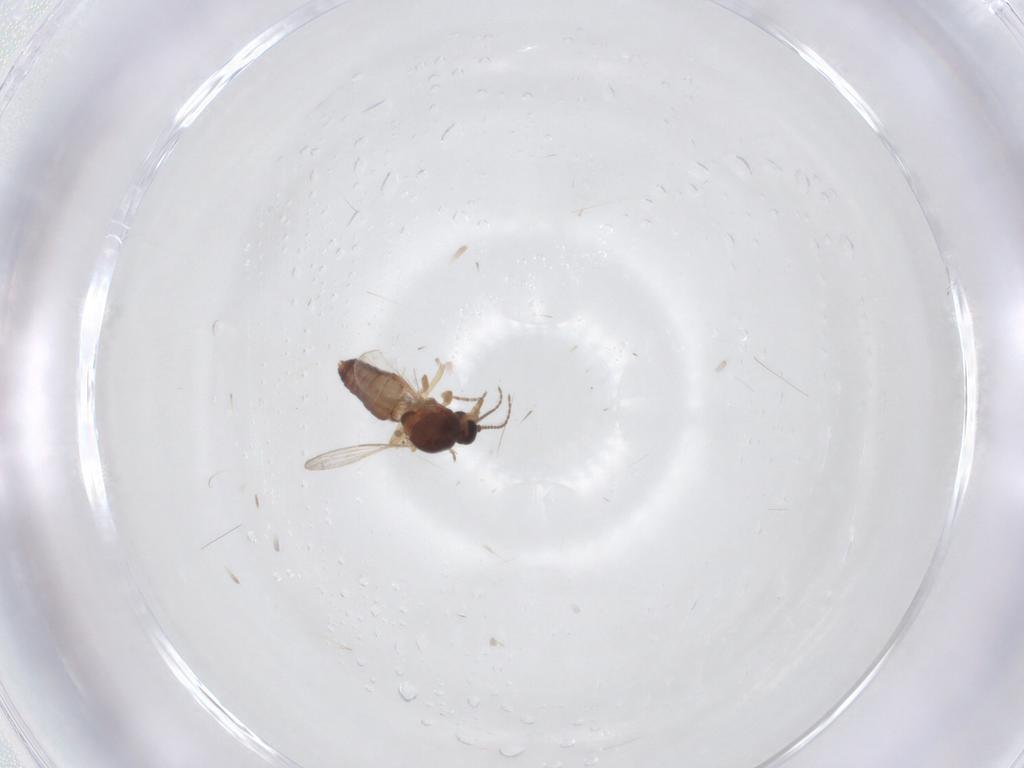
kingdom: Animalia
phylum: Arthropoda
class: Insecta
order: Diptera
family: Ceratopogonidae
